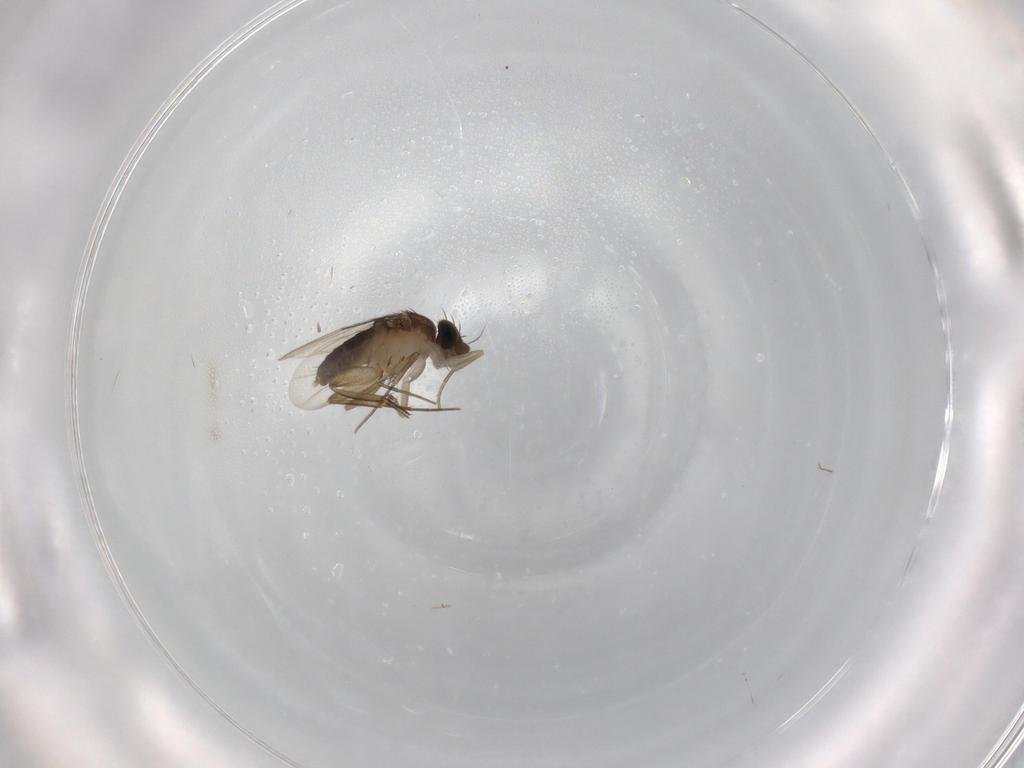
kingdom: Animalia
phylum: Arthropoda
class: Insecta
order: Diptera
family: Phoridae
